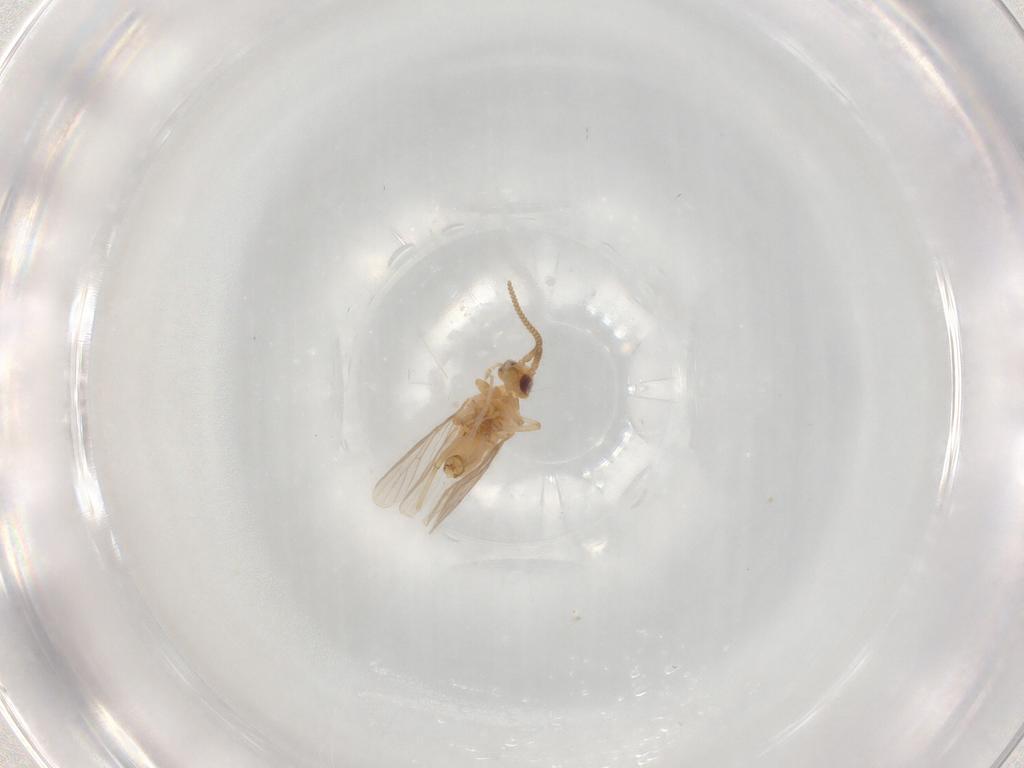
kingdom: Animalia
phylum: Arthropoda
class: Insecta
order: Neuroptera
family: Coniopterygidae
